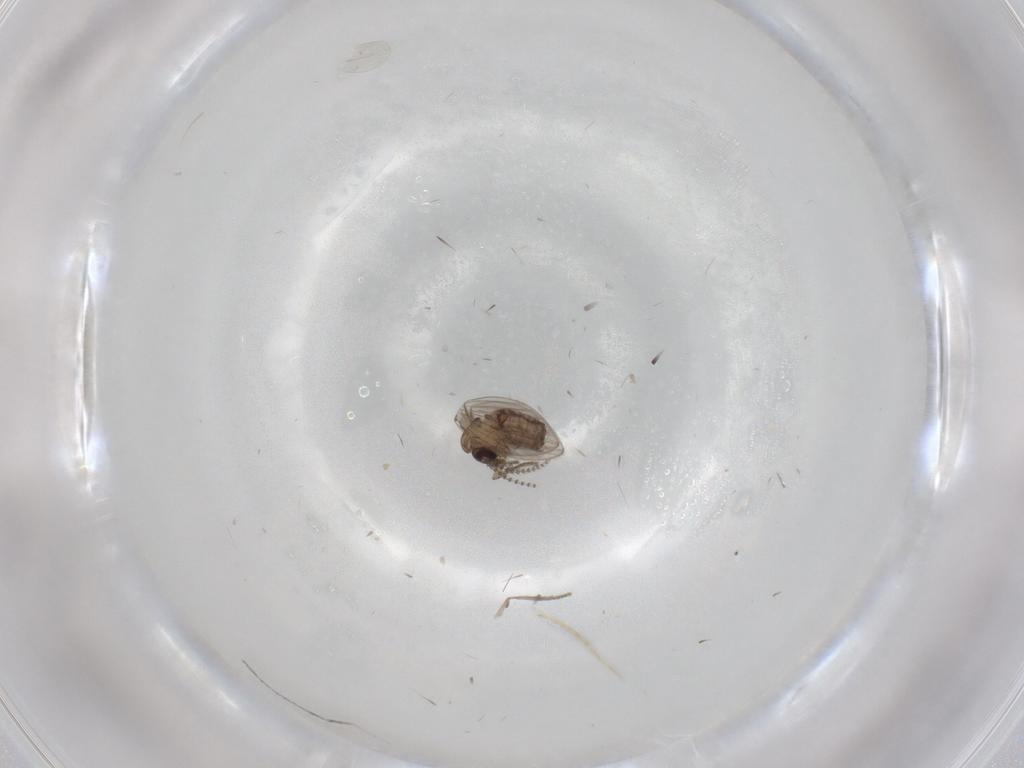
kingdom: Animalia
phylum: Arthropoda
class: Insecta
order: Diptera
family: Psychodidae
